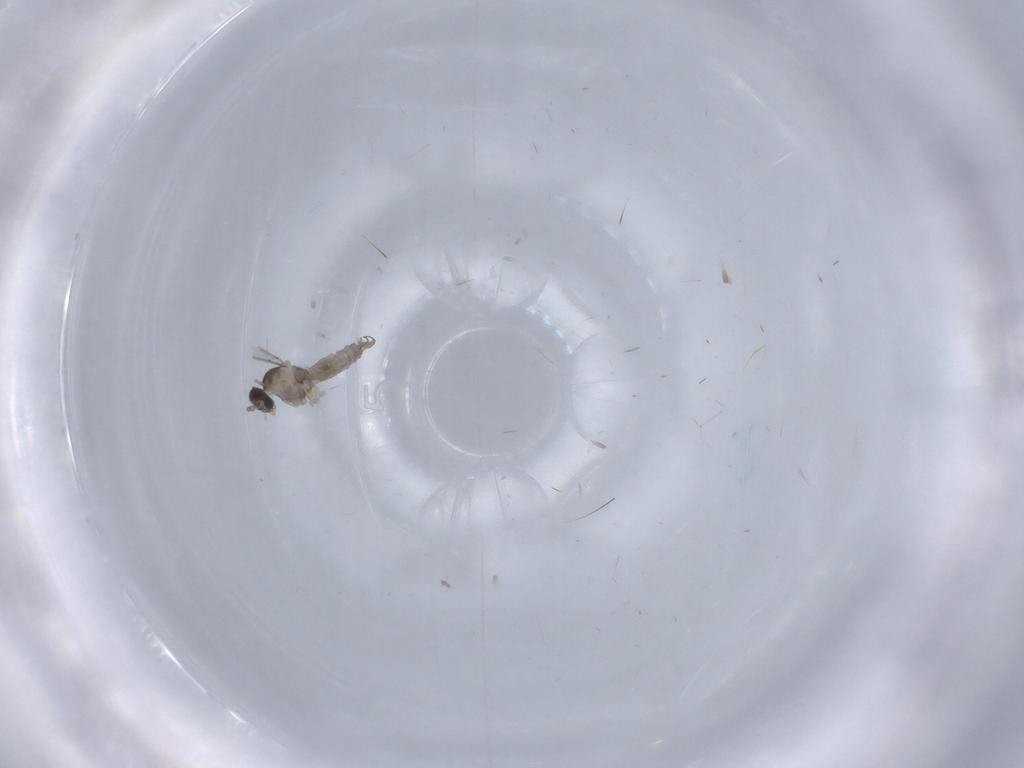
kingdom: Animalia
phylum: Arthropoda
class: Insecta
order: Diptera
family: Cecidomyiidae
